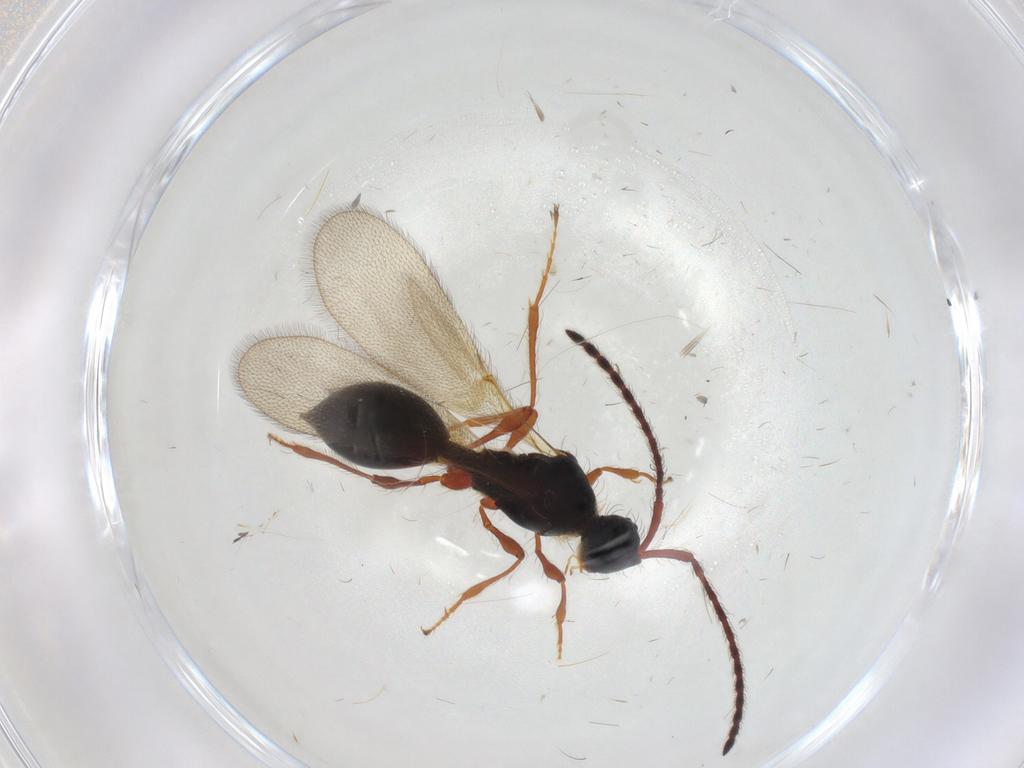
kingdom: Animalia
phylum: Arthropoda
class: Insecta
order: Hymenoptera
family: Diapriidae
